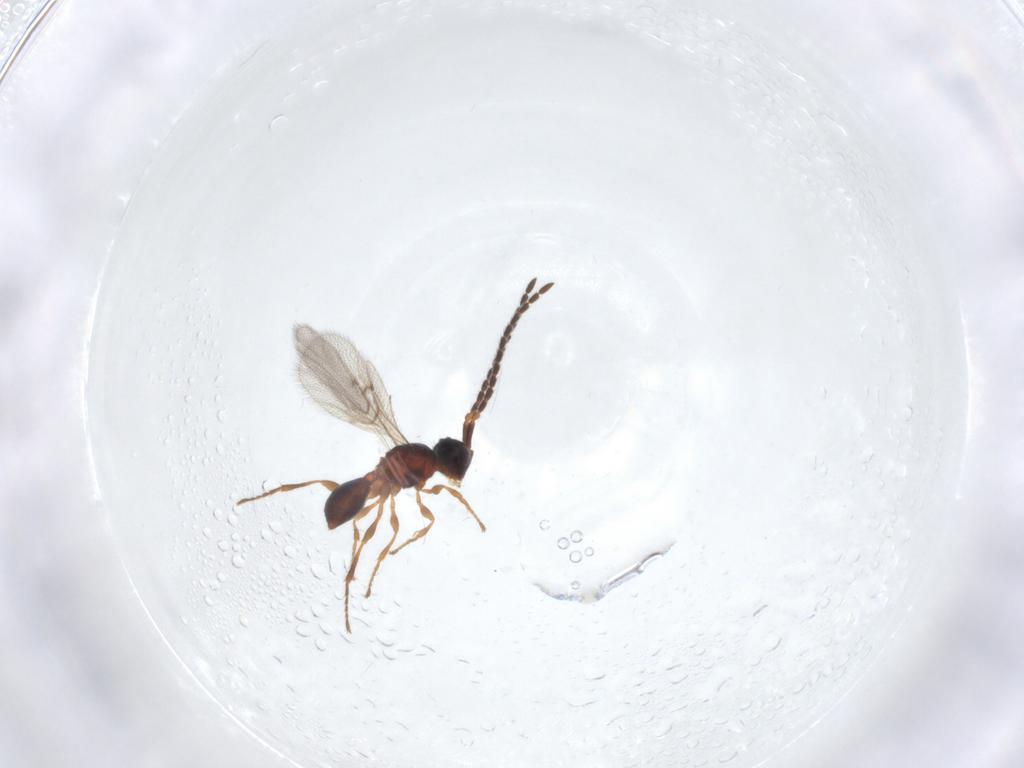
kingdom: Animalia
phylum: Arthropoda
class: Insecta
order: Hymenoptera
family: Diapriidae
